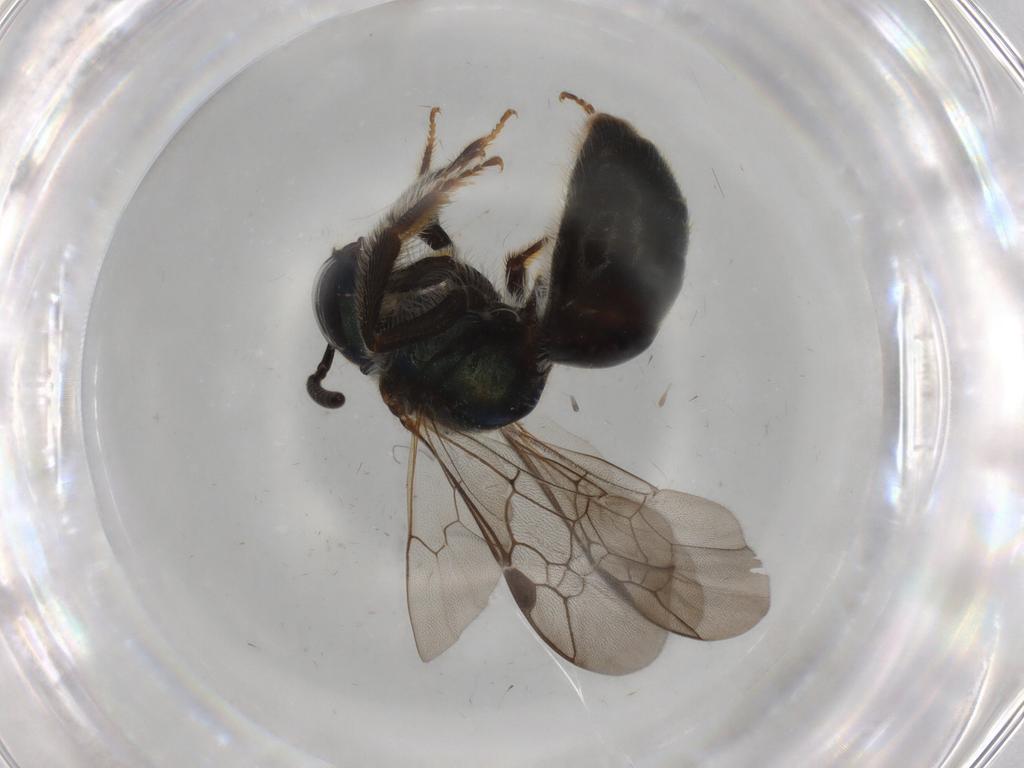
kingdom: Animalia
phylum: Arthropoda
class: Insecta
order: Hymenoptera
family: Halictidae
